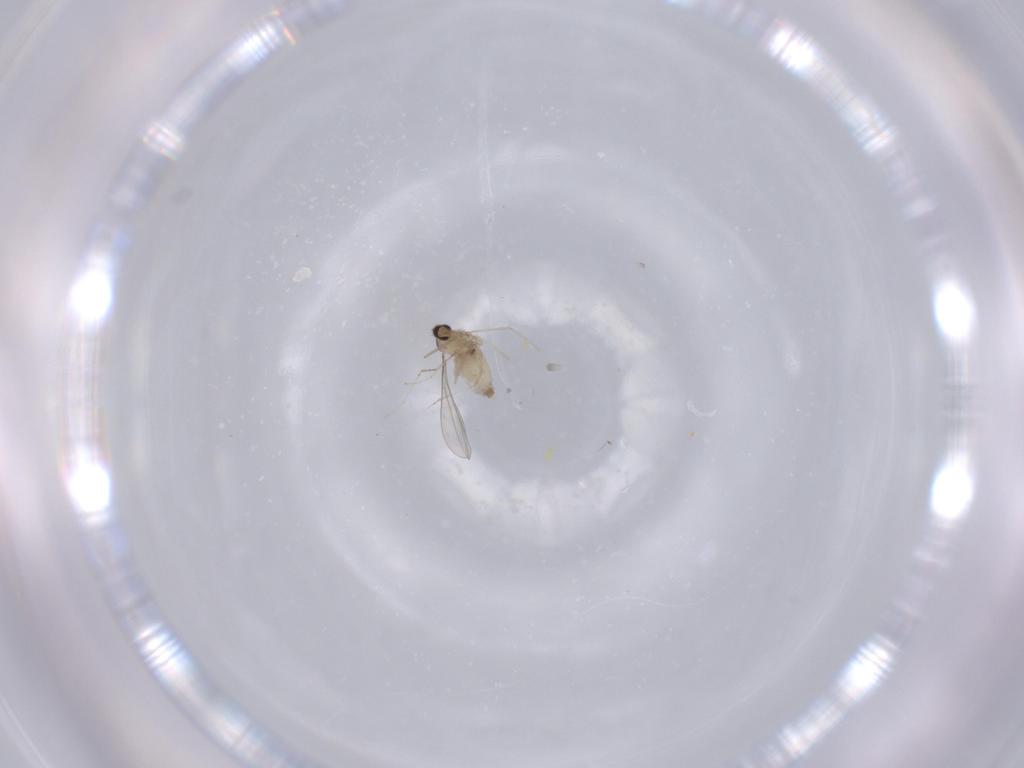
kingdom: Animalia
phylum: Arthropoda
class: Insecta
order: Diptera
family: Cecidomyiidae
